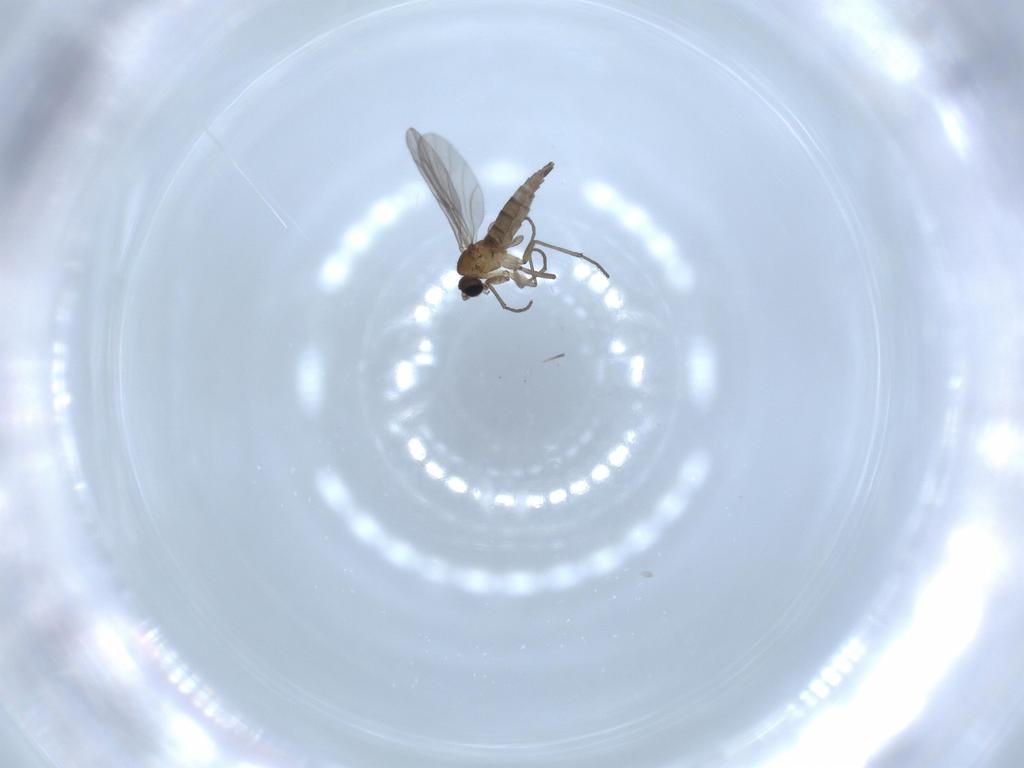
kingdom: Animalia
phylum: Arthropoda
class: Insecta
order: Diptera
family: Sciaridae
